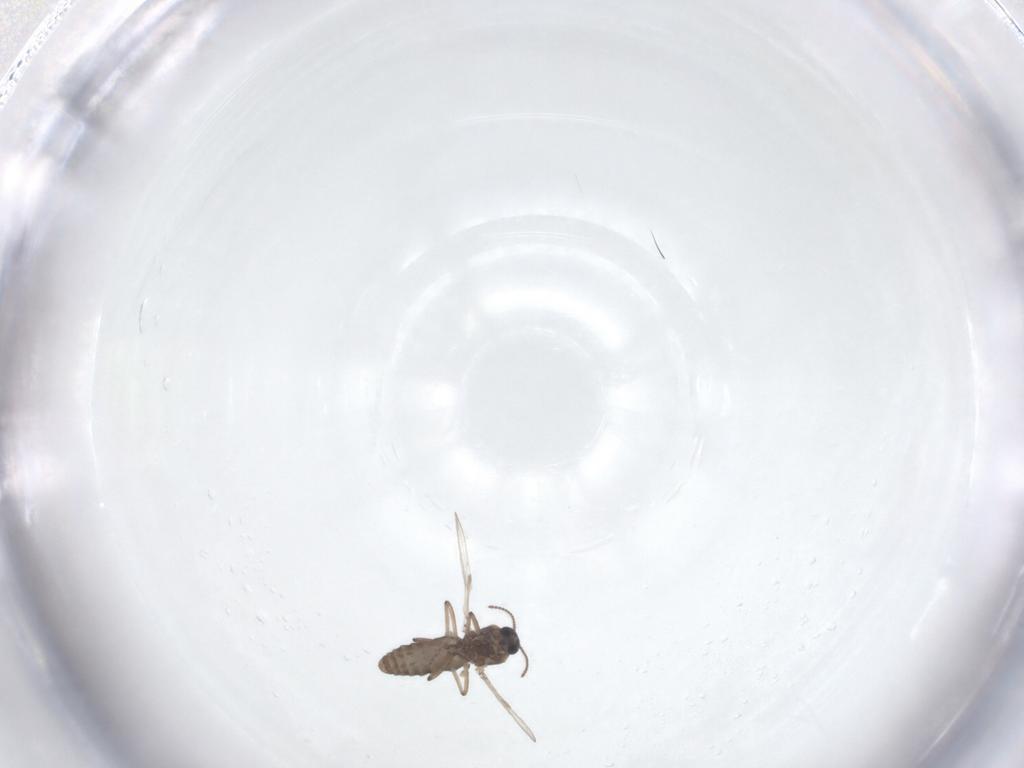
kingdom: Animalia
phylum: Arthropoda
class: Insecta
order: Diptera
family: Ceratopogonidae
